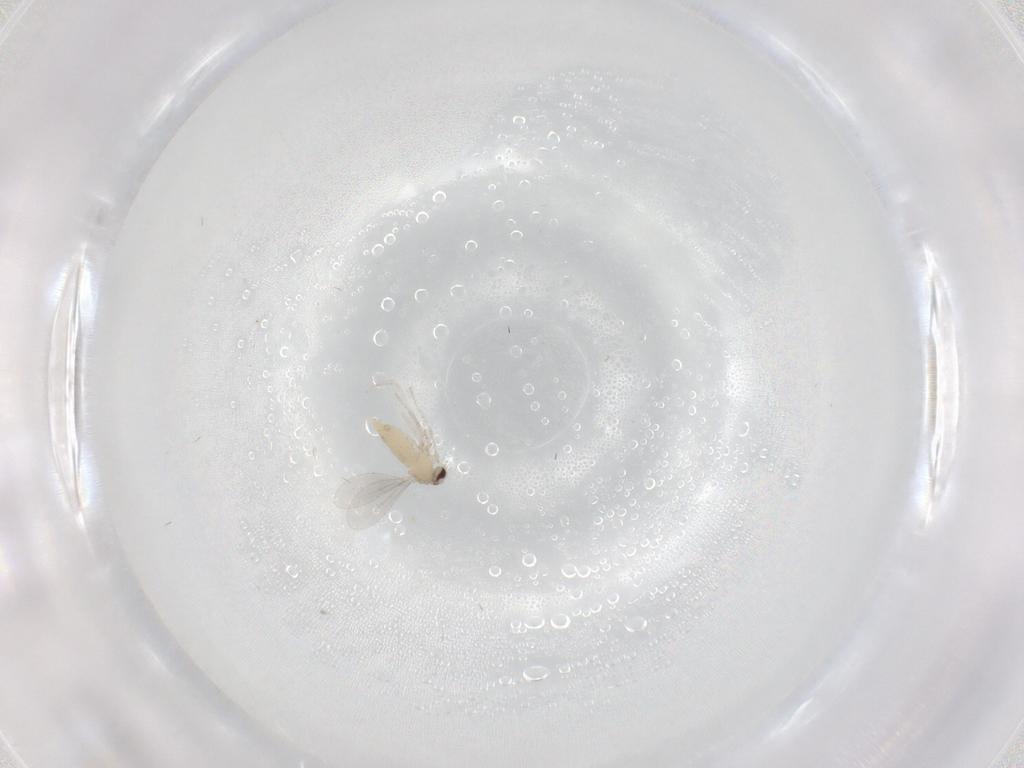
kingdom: Animalia
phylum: Arthropoda
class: Insecta
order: Diptera
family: Cecidomyiidae
